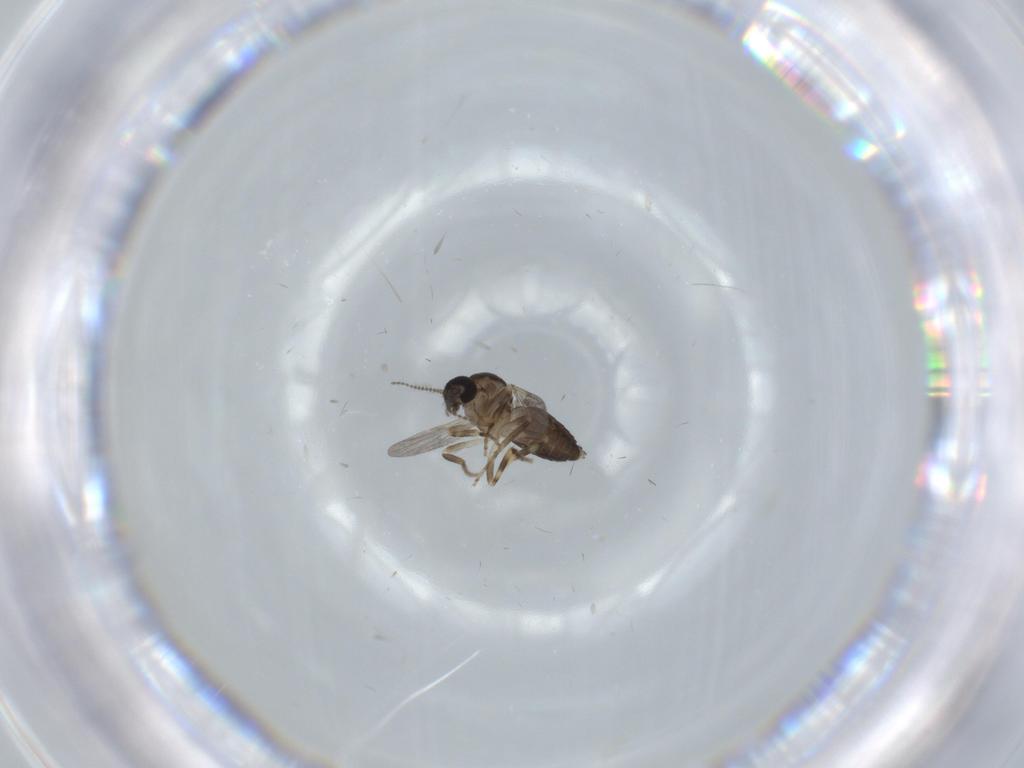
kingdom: Animalia
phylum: Arthropoda
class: Insecta
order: Diptera
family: Sciaridae
